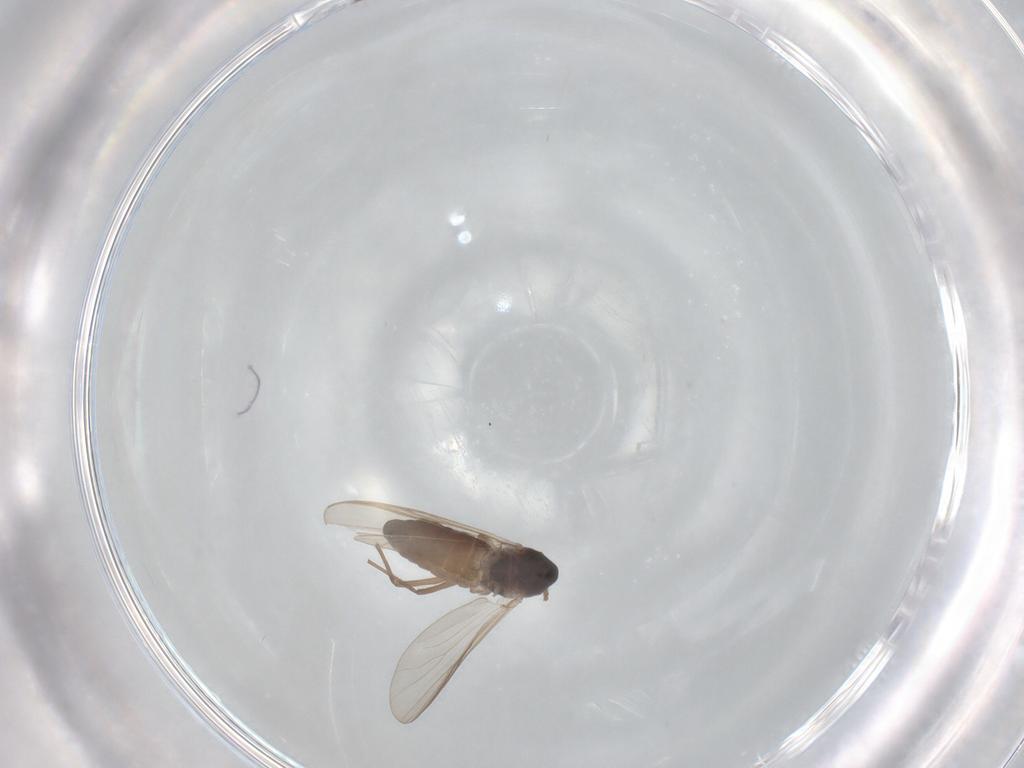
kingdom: Animalia
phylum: Arthropoda
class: Insecta
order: Diptera
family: Chironomidae
